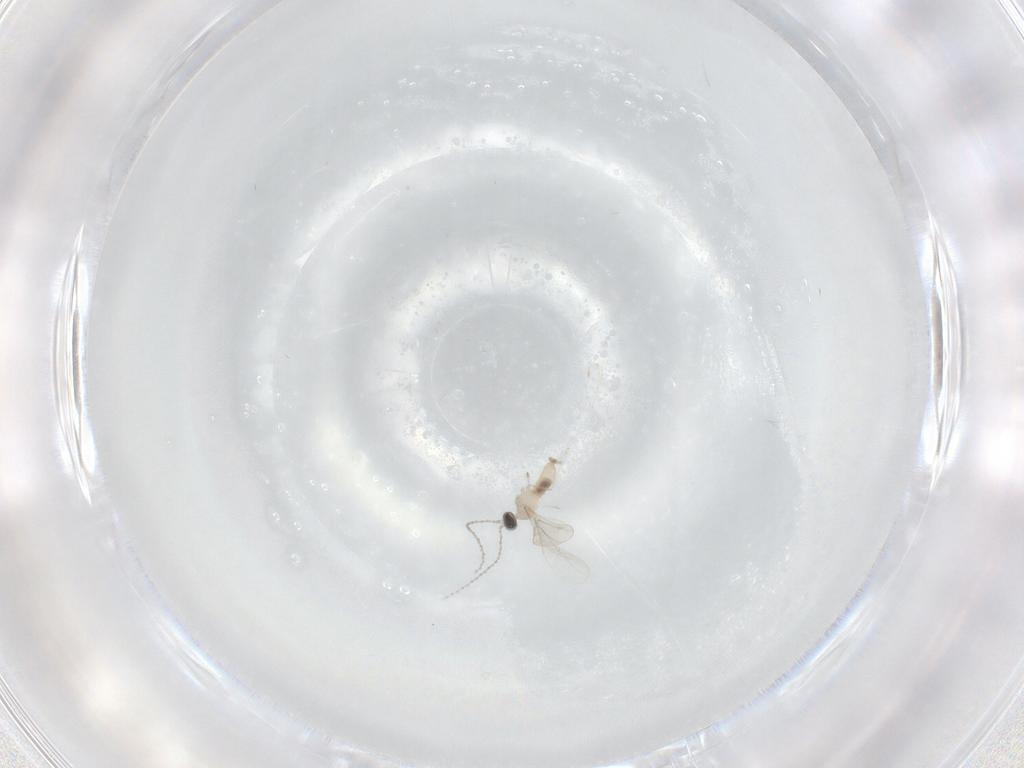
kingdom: Animalia
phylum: Arthropoda
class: Insecta
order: Diptera
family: Cecidomyiidae
